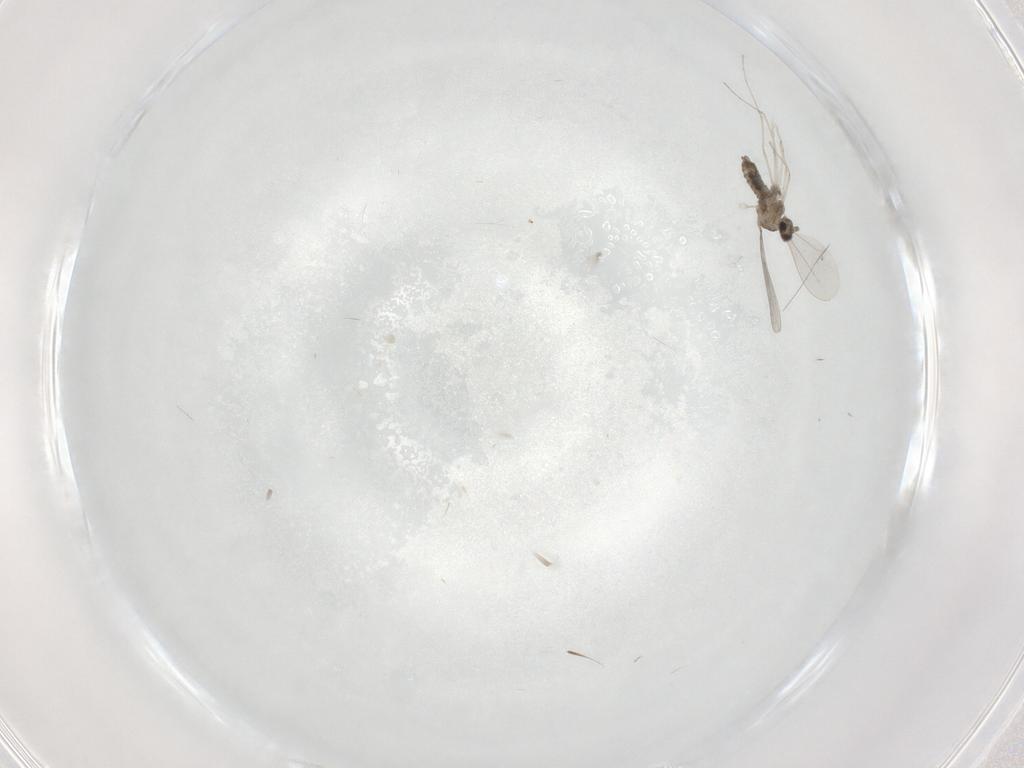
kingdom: Animalia
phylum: Arthropoda
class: Insecta
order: Diptera
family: Cecidomyiidae
